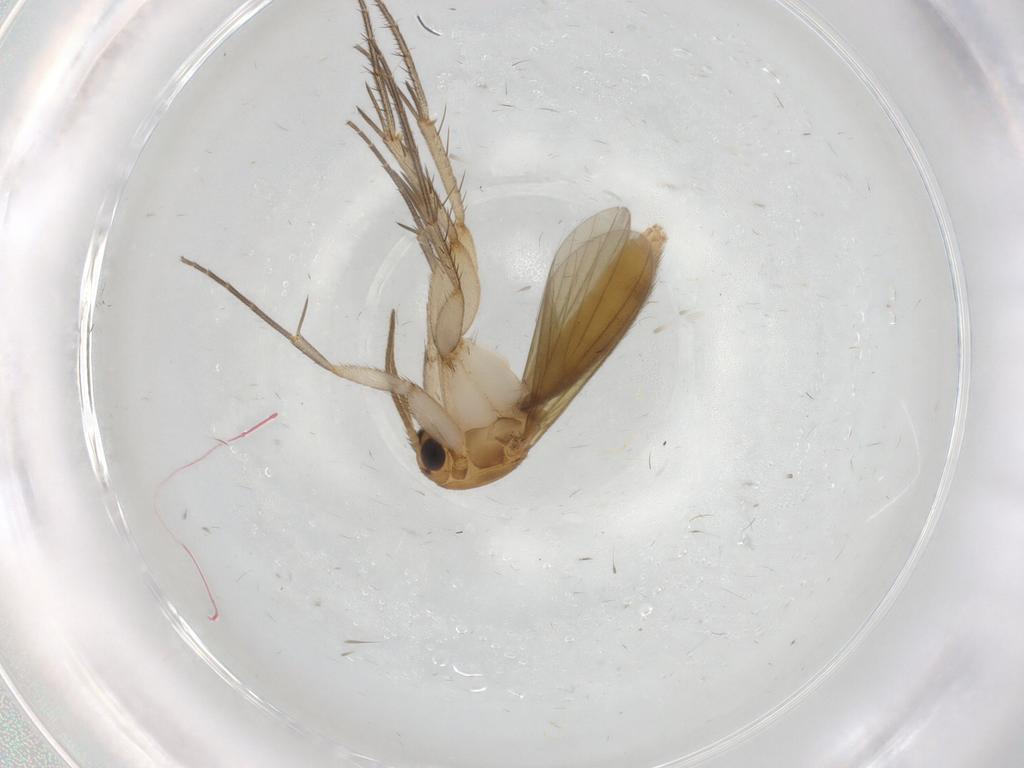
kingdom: Animalia
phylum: Arthropoda
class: Insecta
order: Diptera
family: Sciaridae
